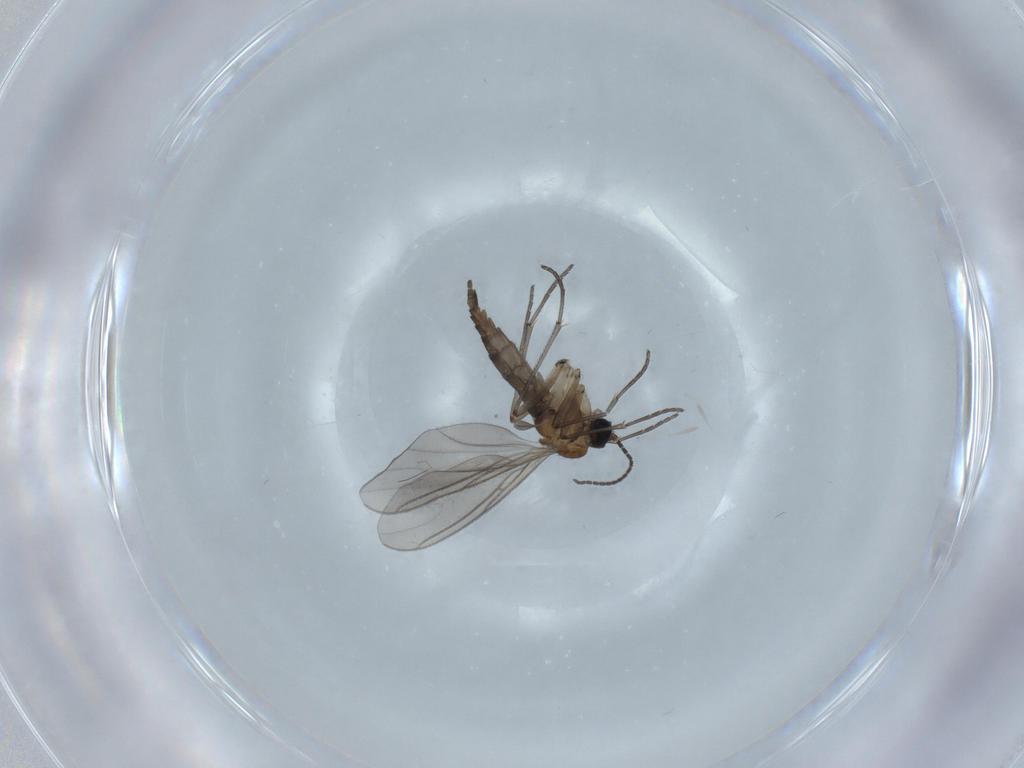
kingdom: Animalia
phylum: Arthropoda
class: Insecta
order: Diptera
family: Sciaridae
